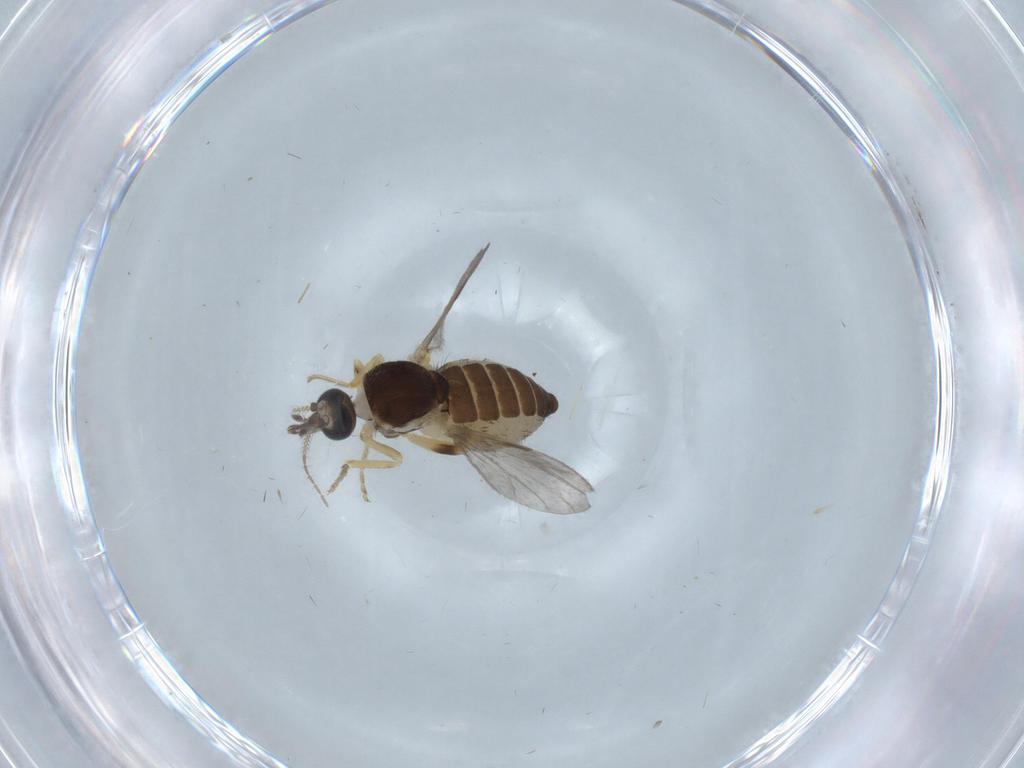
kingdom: Animalia
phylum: Arthropoda
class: Insecta
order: Diptera
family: Ceratopogonidae
